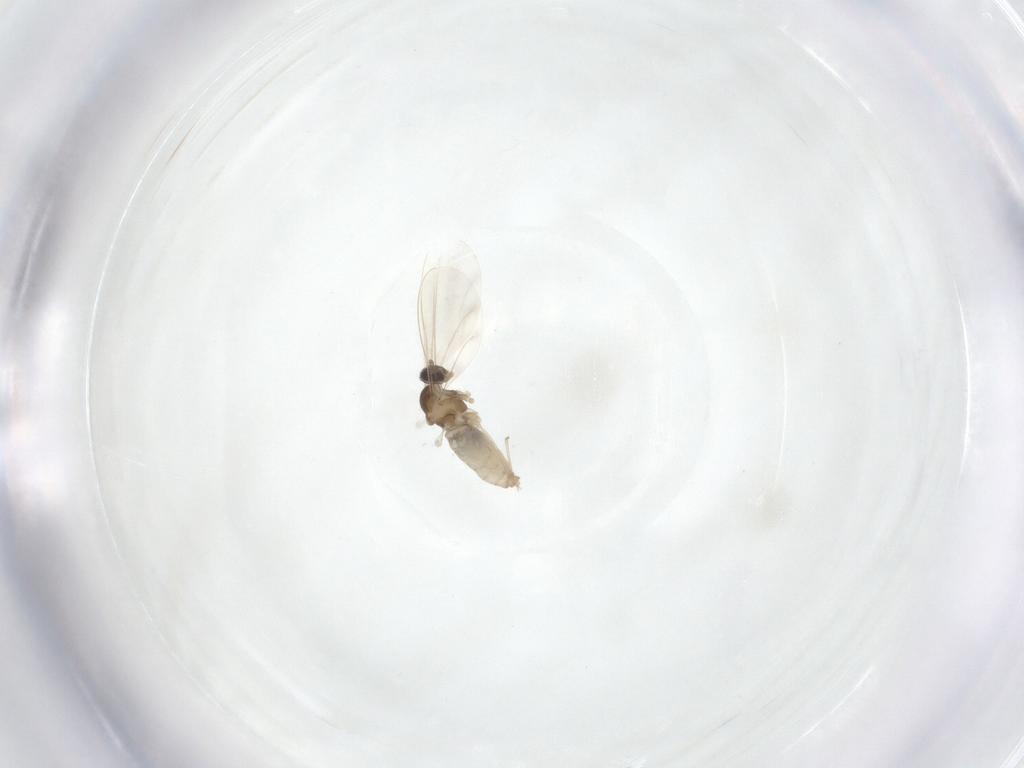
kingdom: Animalia
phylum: Arthropoda
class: Insecta
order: Diptera
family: Cecidomyiidae
